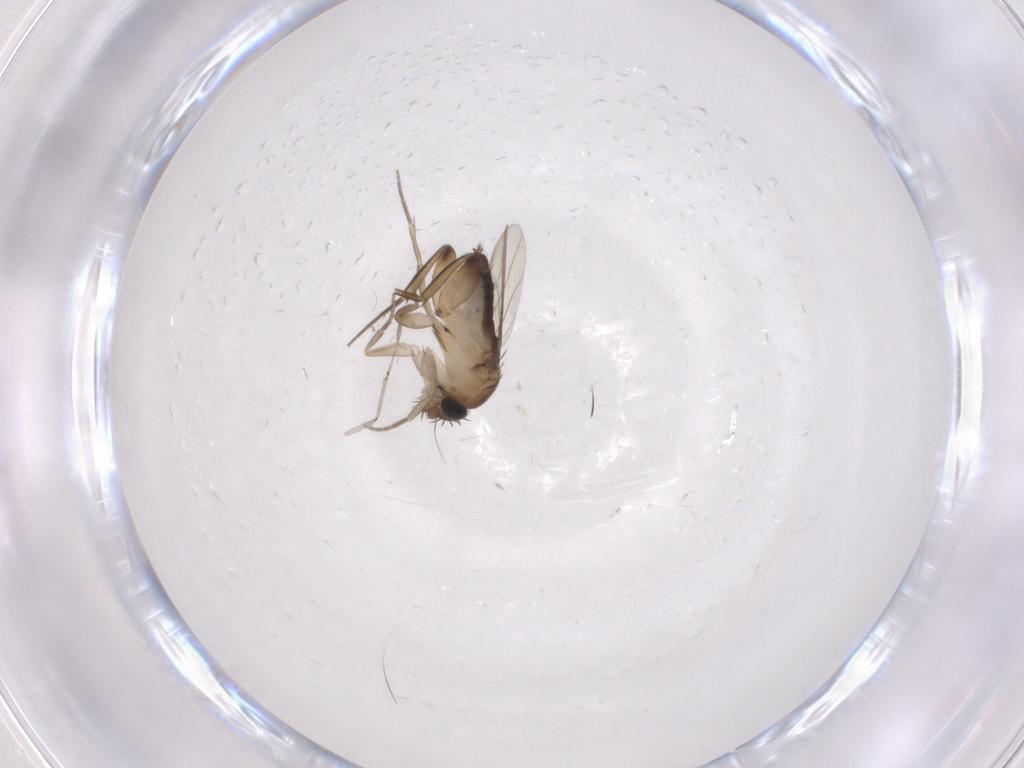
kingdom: Animalia
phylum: Arthropoda
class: Insecta
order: Diptera
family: Phoridae
